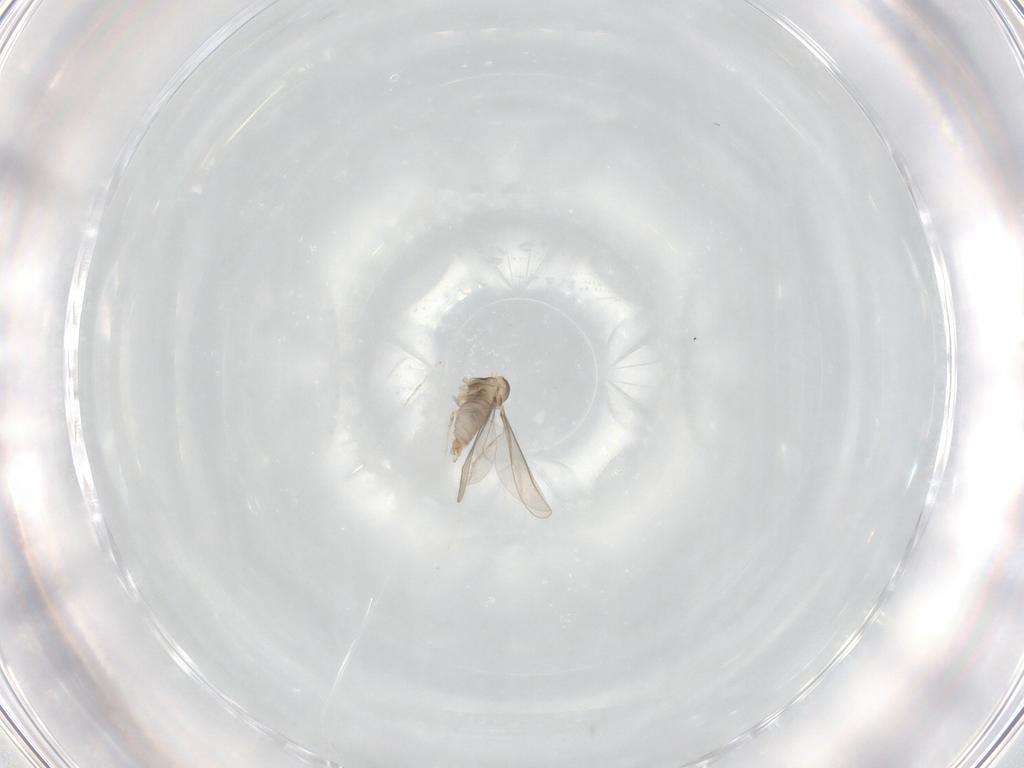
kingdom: Animalia
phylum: Arthropoda
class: Insecta
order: Diptera
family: Cecidomyiidae
